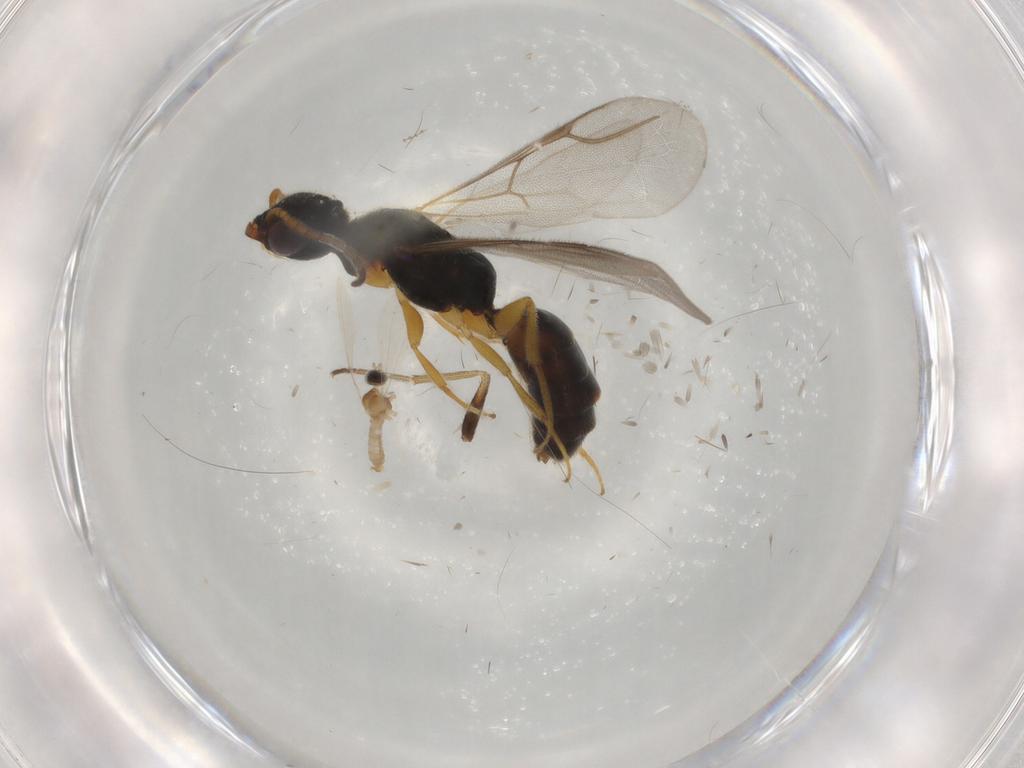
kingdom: Animalia
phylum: Arthropoda
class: Insecta
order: Hymenoptera
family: Bethylidae
